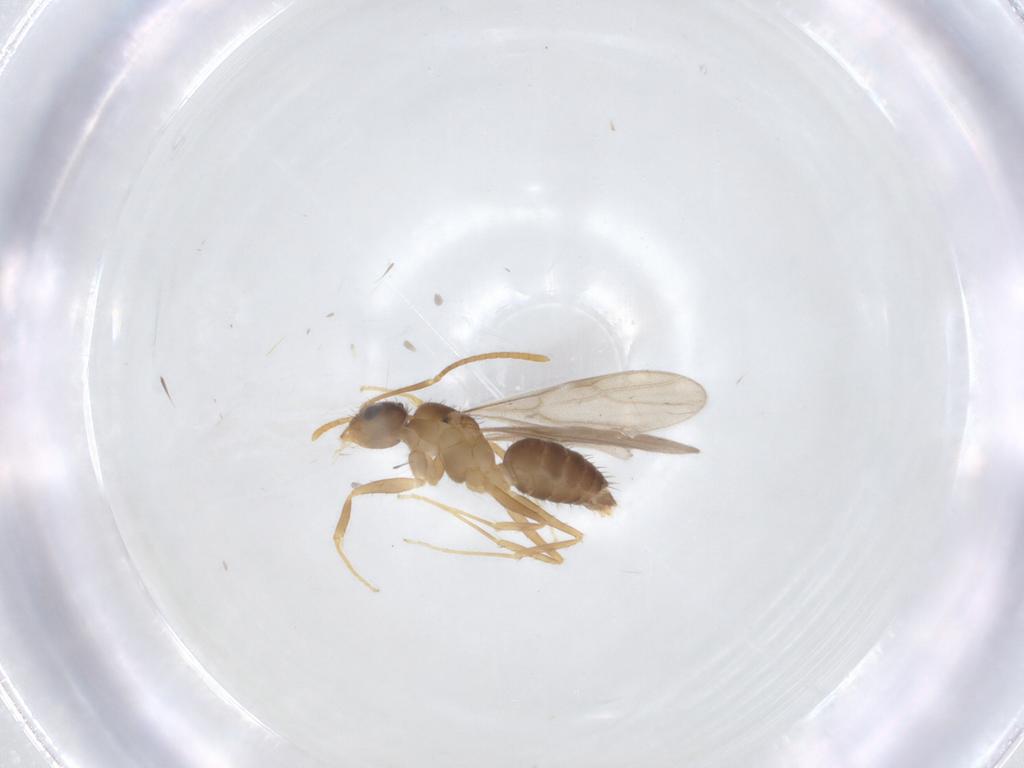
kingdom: Animalia
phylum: Arthropoda
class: Insecta
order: Hymenoptera
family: Formicidae
